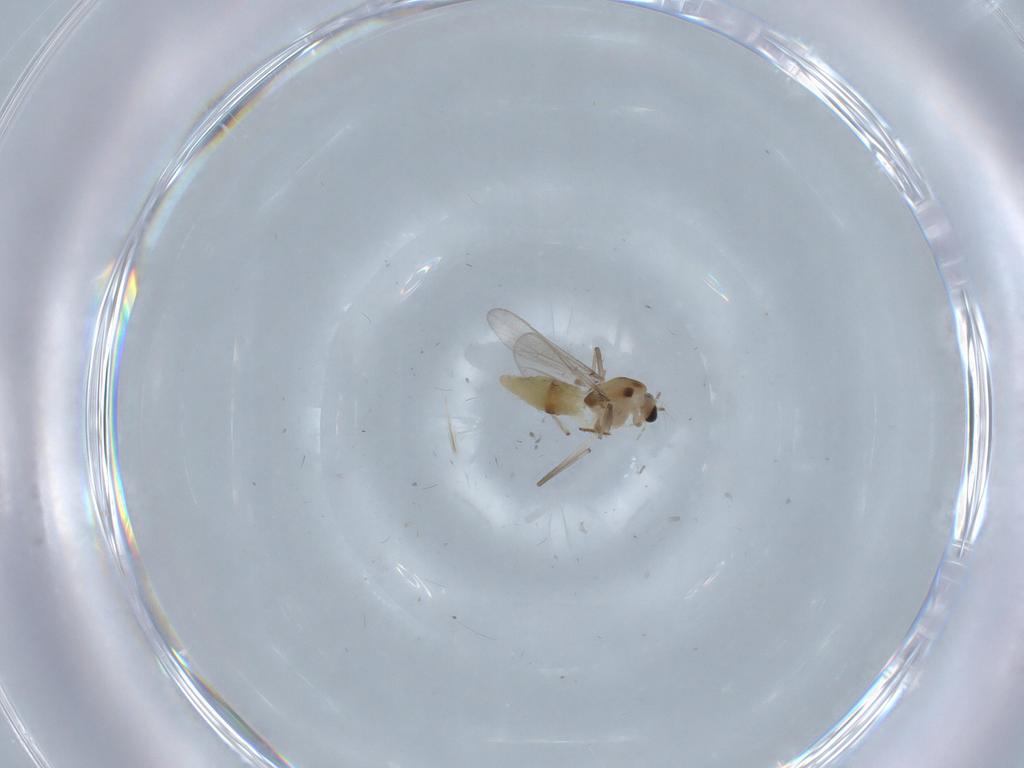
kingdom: Animalia
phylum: Arthropoda
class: Insecta
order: Diptera
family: Chironomidae
